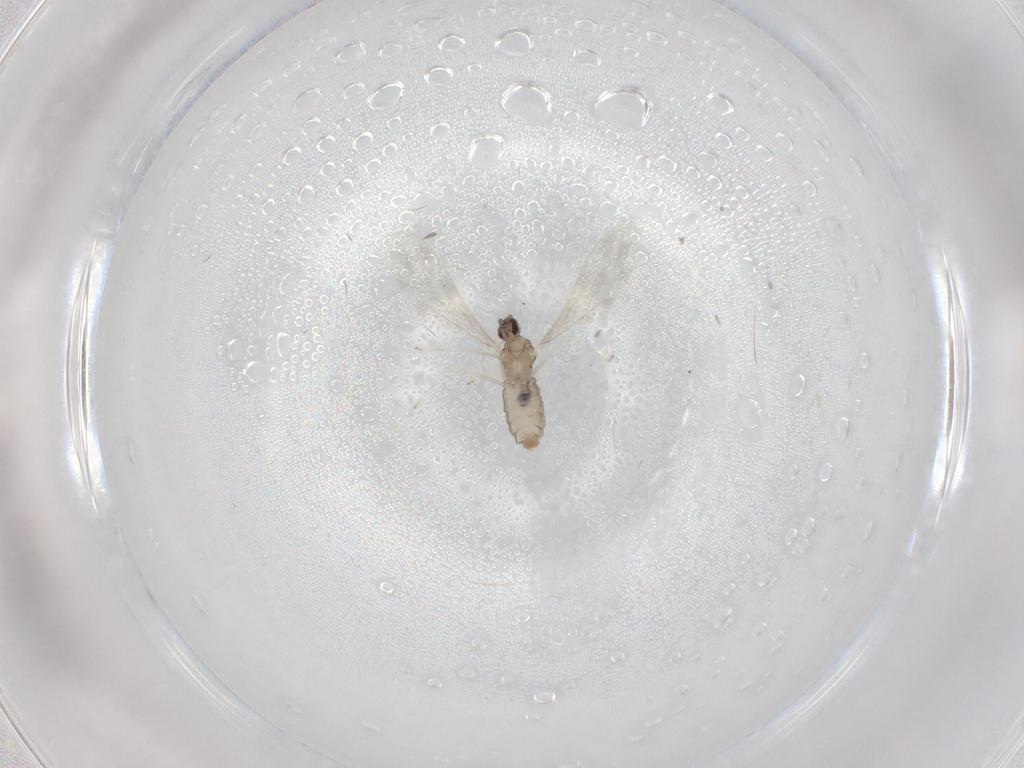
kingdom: Animalia
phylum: Arthropoda
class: Insecta
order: Diptera
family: Cecidomyiidae
